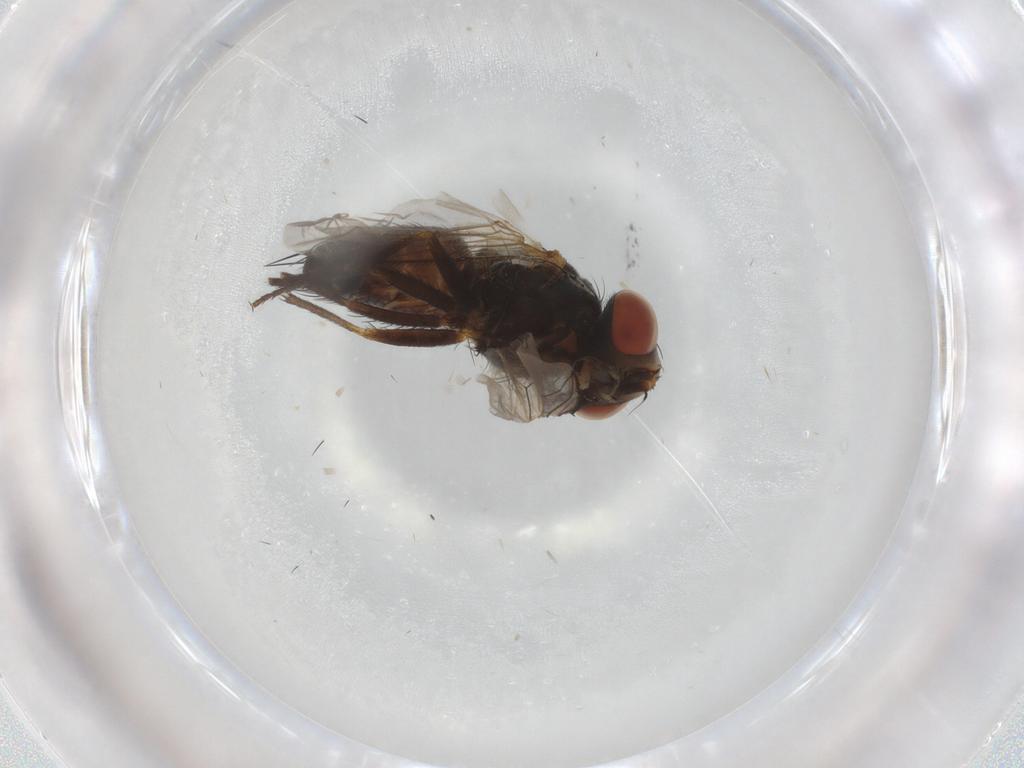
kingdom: Animalia
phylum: Arthropoda
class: Insecta
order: Diptera
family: Sarcophagidae
